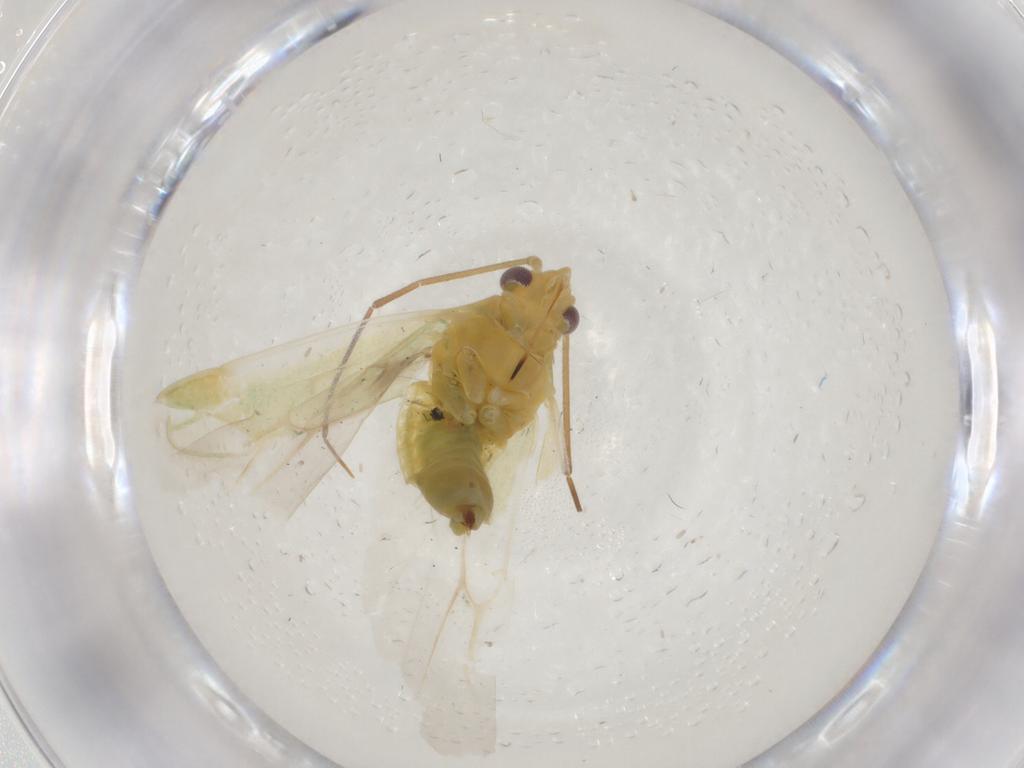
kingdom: Animalia
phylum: Arthropoda
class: Insecta
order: Hemiptera
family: Miridae
